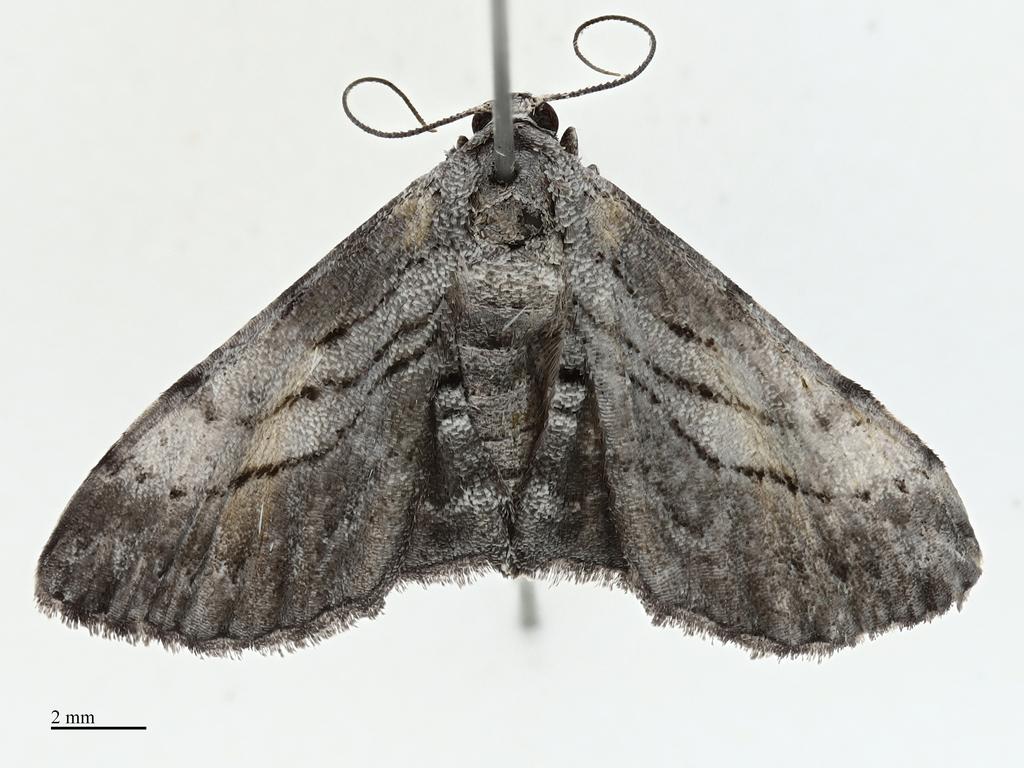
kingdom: Animalia
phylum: Arthropoda
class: Insecta
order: Lepidoptera
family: Geometridae
